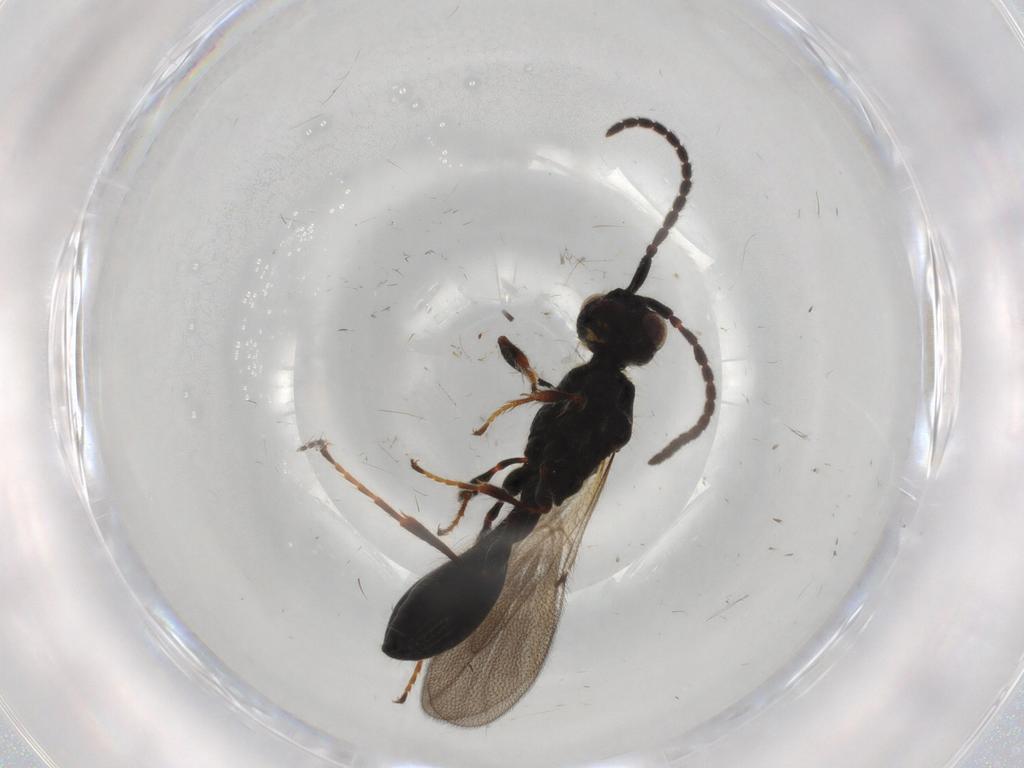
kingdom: Animalia
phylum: Arthropoda
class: Insecta
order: Hymenoptera
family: Diapriidae
